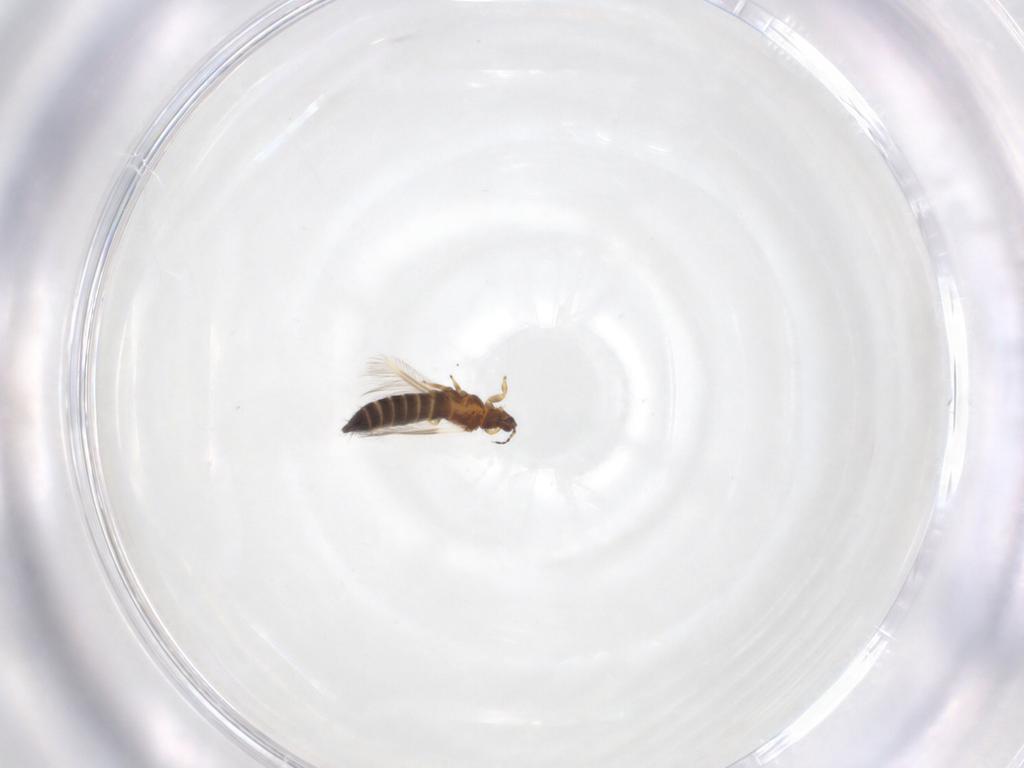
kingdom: Animalia
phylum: Arthropoda
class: Insecta
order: Thysanoptera
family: Thripidae
